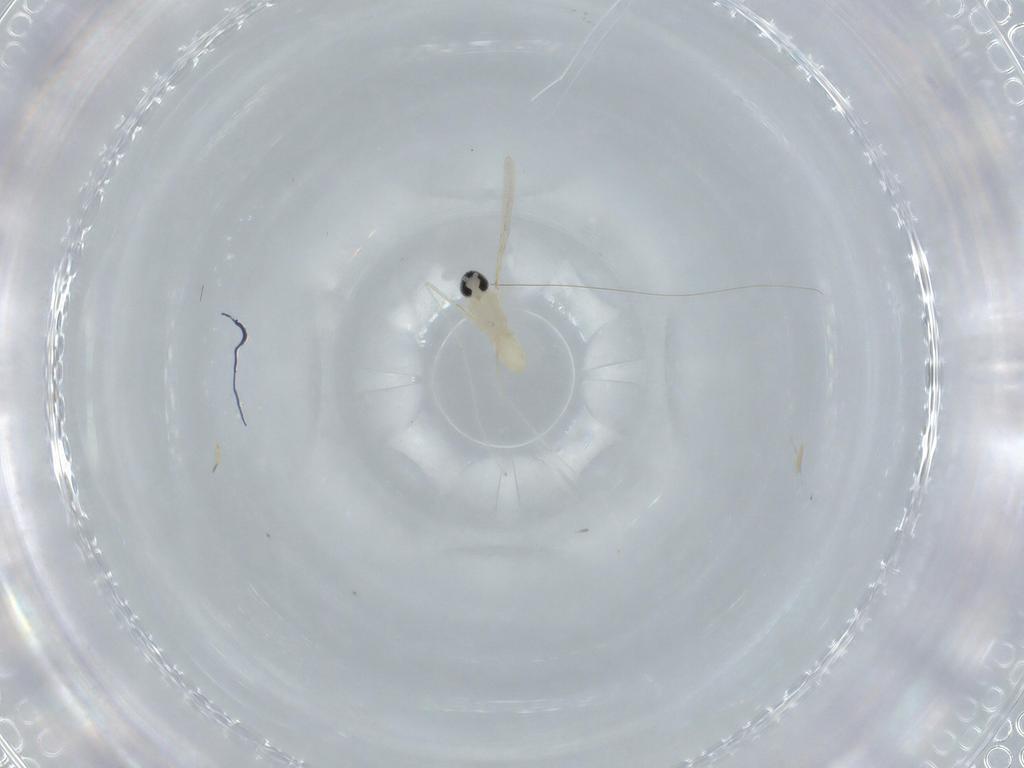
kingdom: Animalia
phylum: Arthropoda
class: Insecta
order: Diptera
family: Cecidomyiidae
